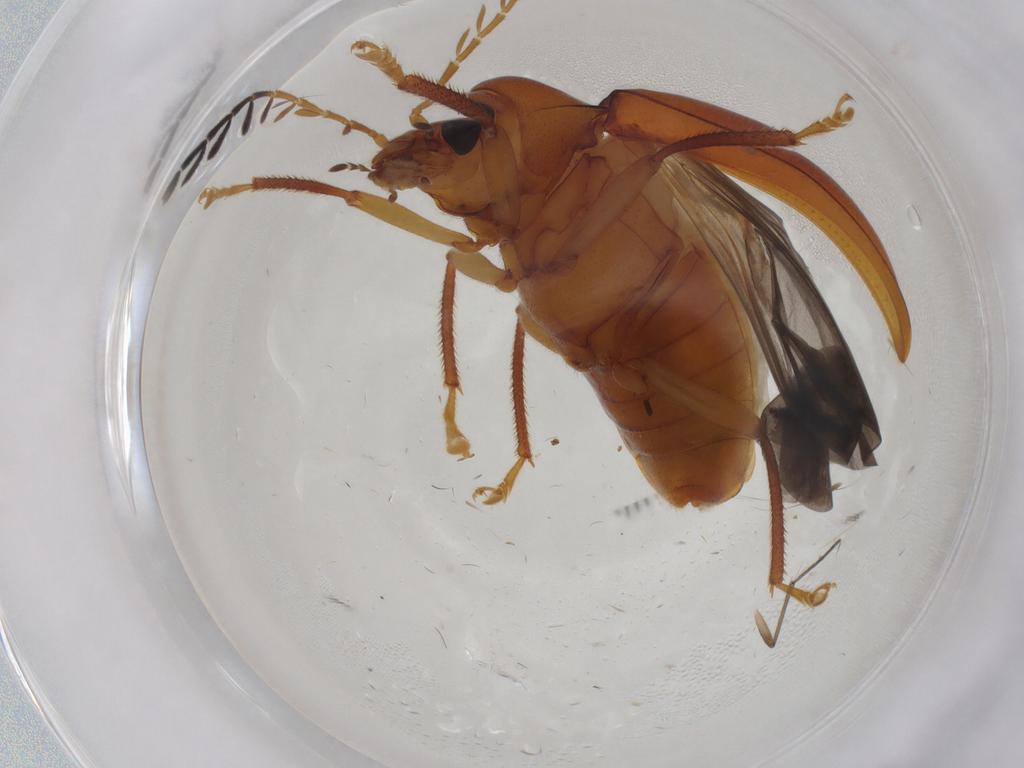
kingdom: Animalia
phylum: Arthropoda
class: Insecta
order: Coleoptera
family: Ptilodactylidae
